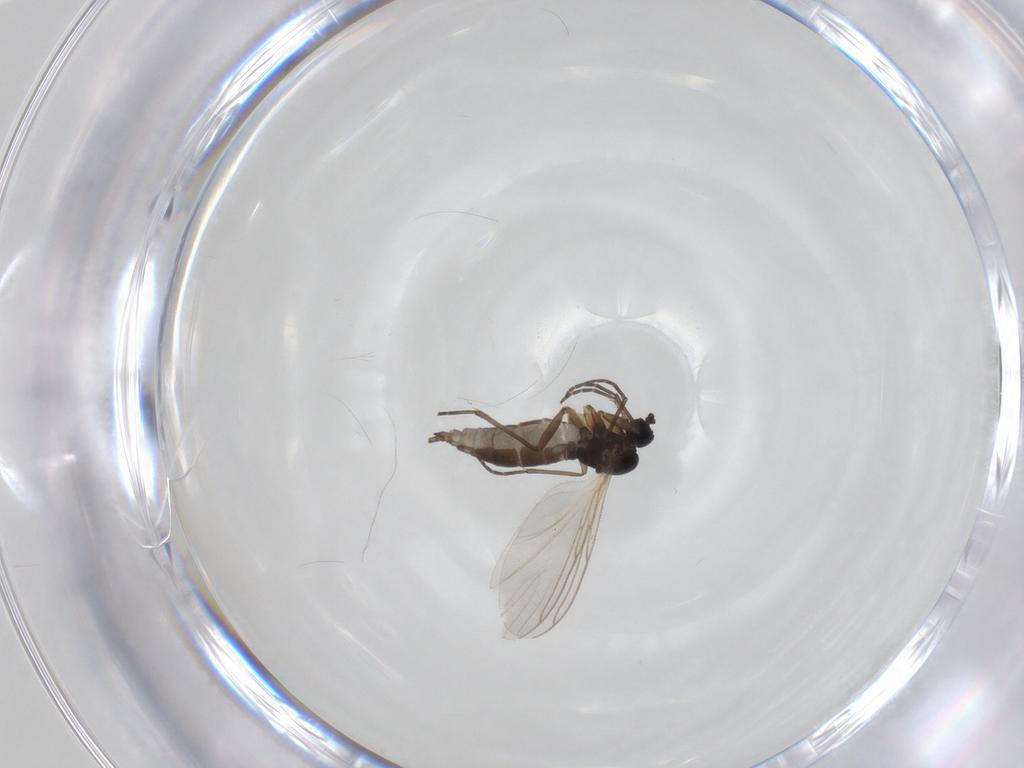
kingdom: Animalia
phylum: Arthropoda
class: Insecta
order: Diptera
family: Sciaridae
